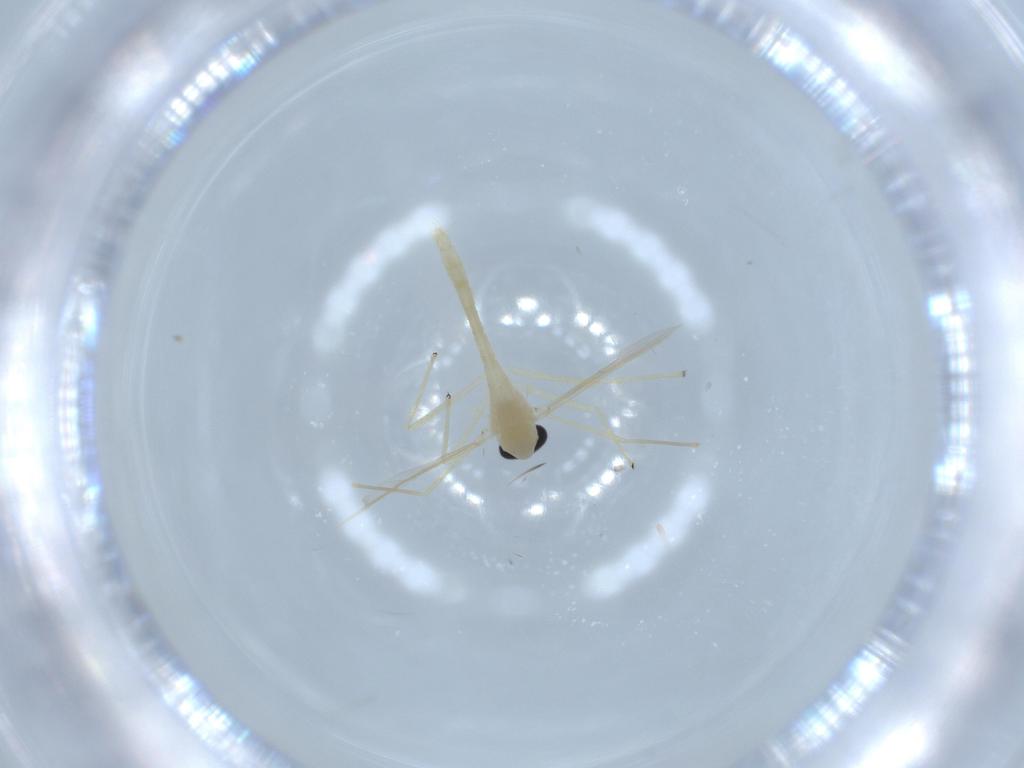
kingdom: Animalia
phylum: Arthropoda
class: Insecta
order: Diptera
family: Chironomidae
